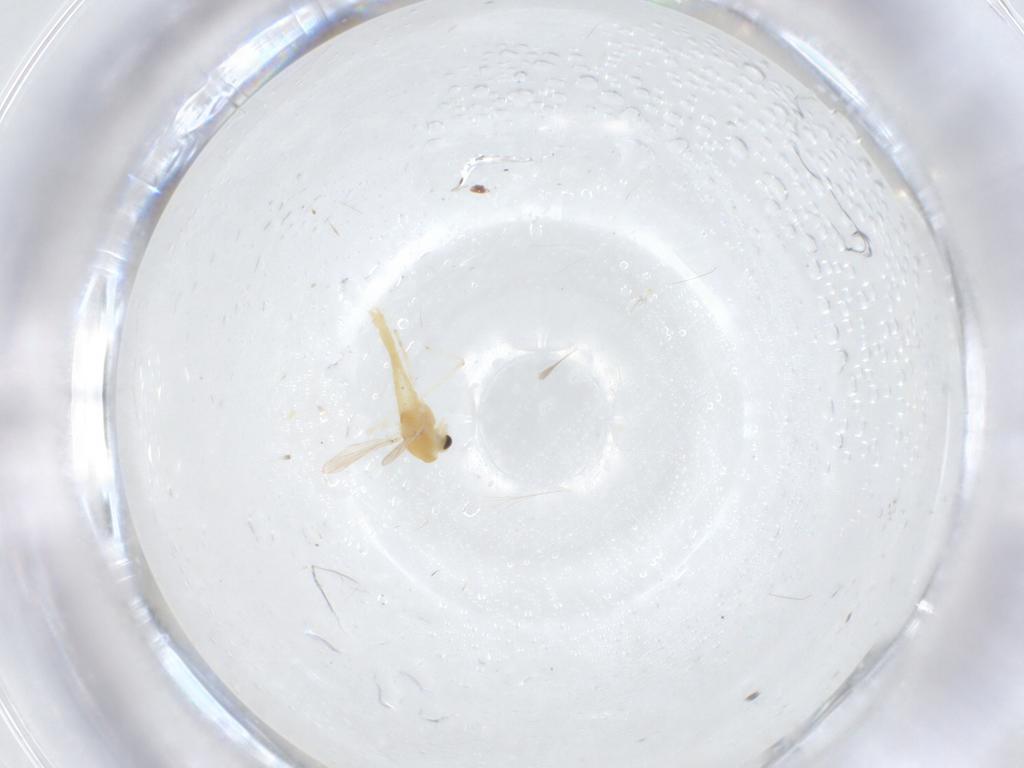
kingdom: Animalia
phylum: Arthropoda
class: Insecta
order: Diptera
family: Chironomidae
